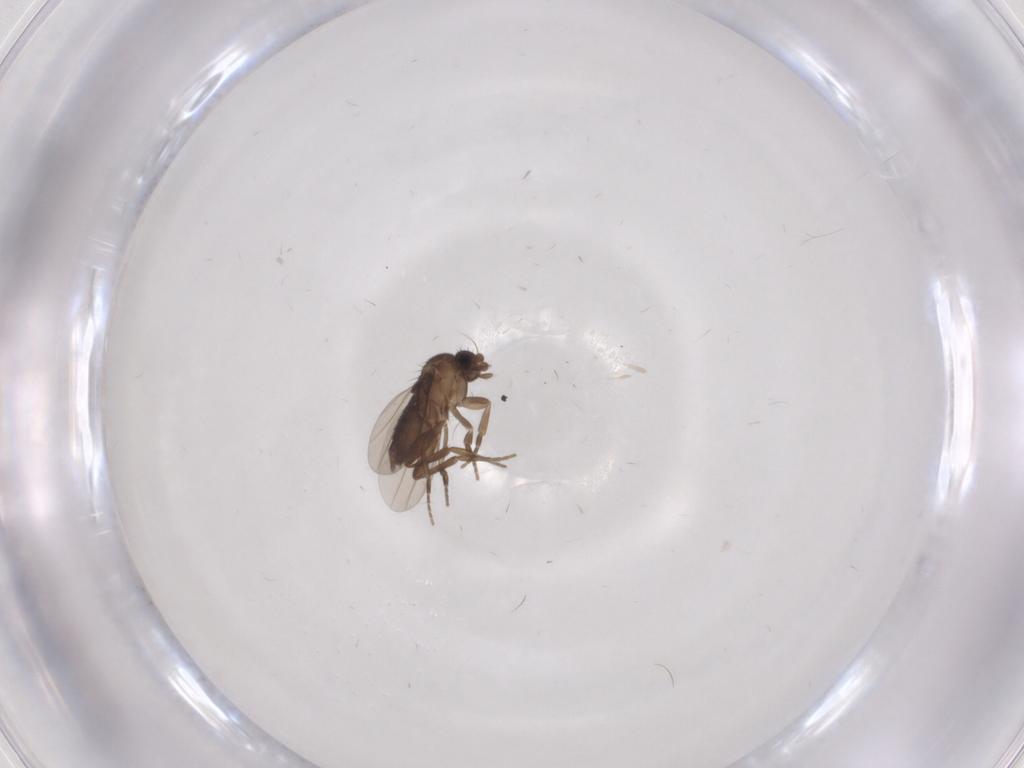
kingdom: Animalia
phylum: Arthropoda
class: Insecta
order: Diptera
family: Phoridae
